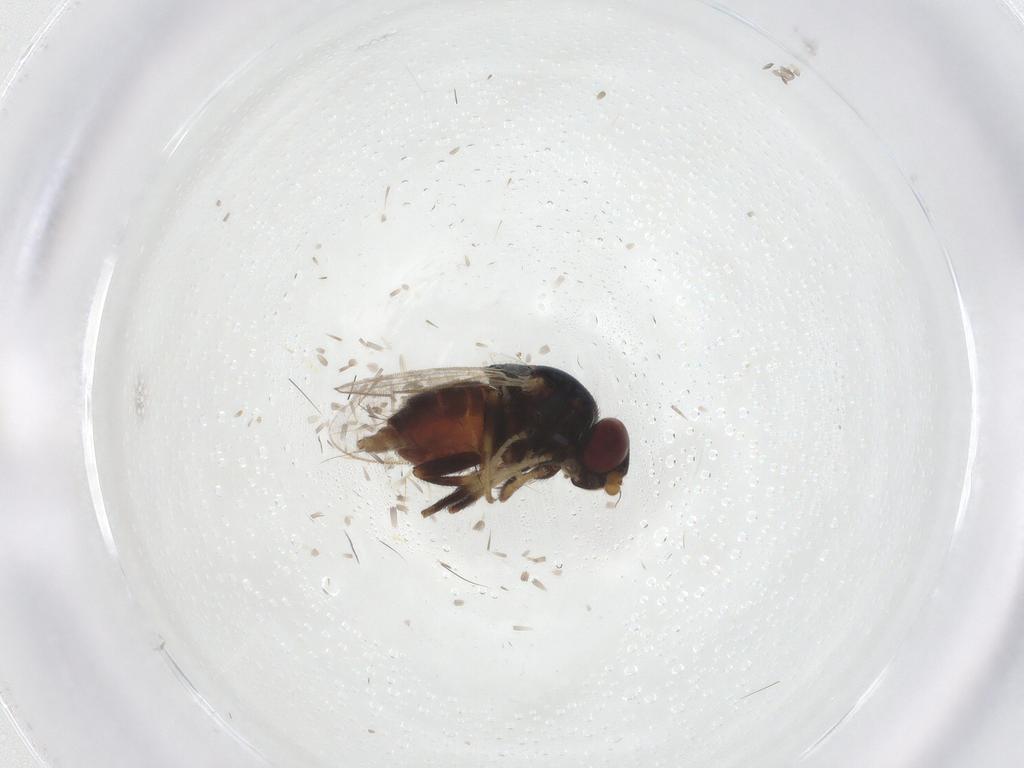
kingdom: Animalia
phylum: Arthropoda
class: Insecta
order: Diptera
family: Chloropidae
